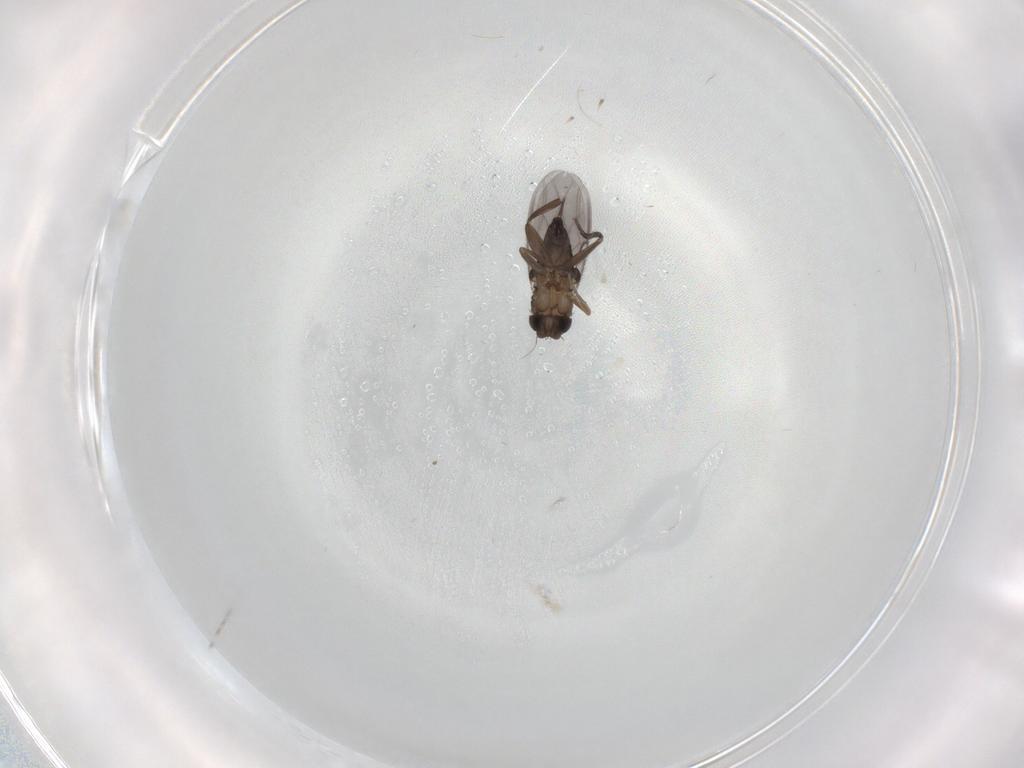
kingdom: Animalia
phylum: Arthropoda
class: Insecta
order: Diptera
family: Phoridae
